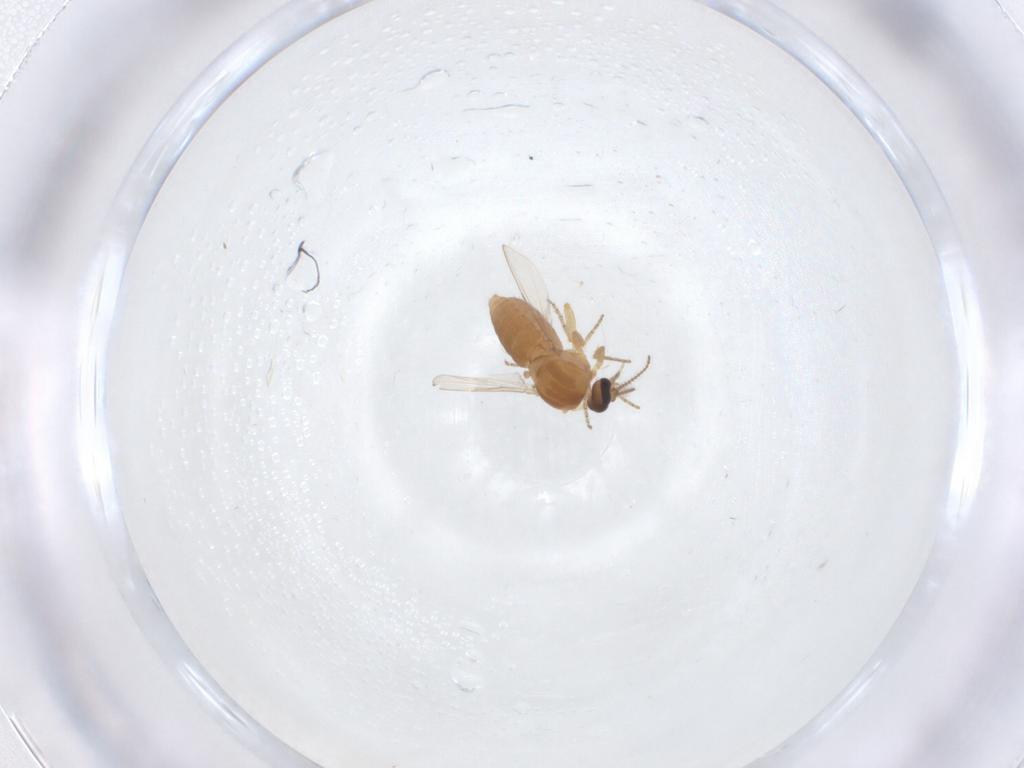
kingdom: Animalia
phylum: Arthropoda
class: Insecta
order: Diptera
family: Ceratopogonidae
